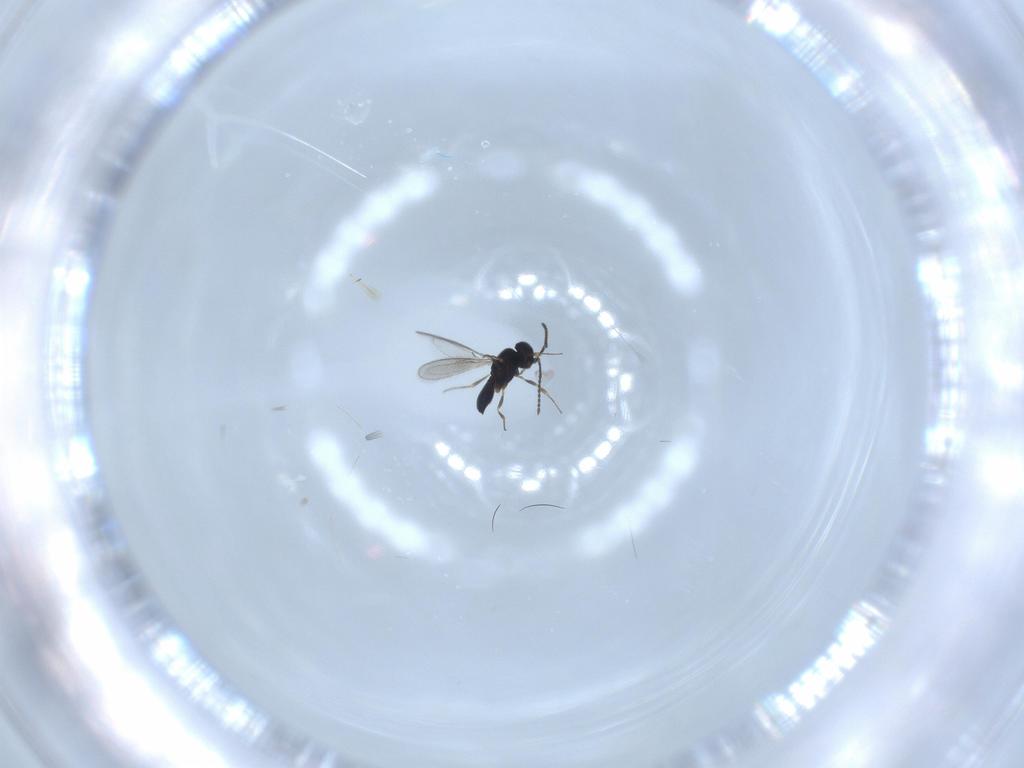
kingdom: Animalia
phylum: Arthropoda
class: Insecta
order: Hymenoptera
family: Scelionidae
